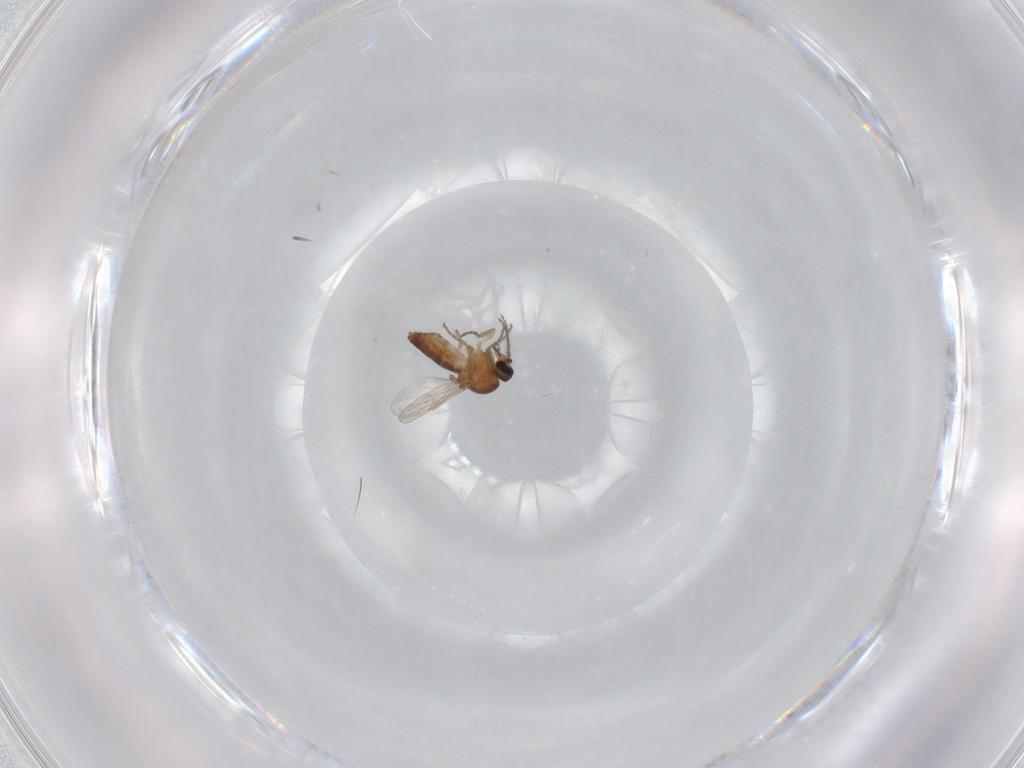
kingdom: Animalia
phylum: Arthropoda
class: Insecta
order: Diptera
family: Ceratopogonidae
